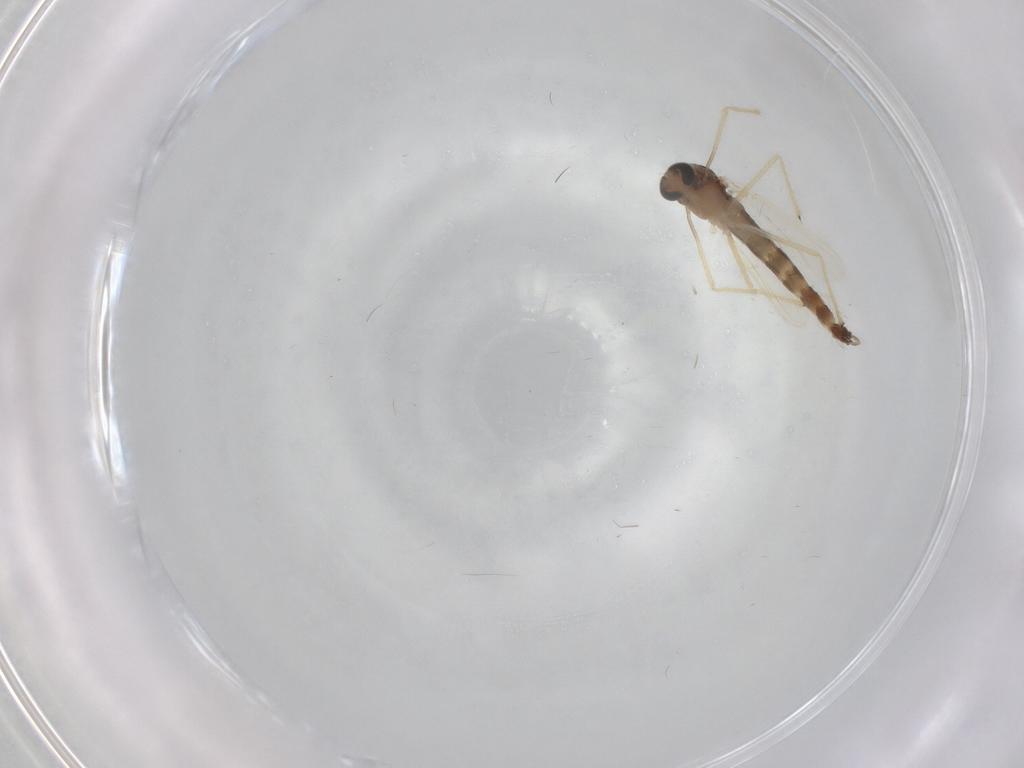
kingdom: Animalia
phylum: Arthropoda
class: Insecta
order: Diptera
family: Chironomidae
